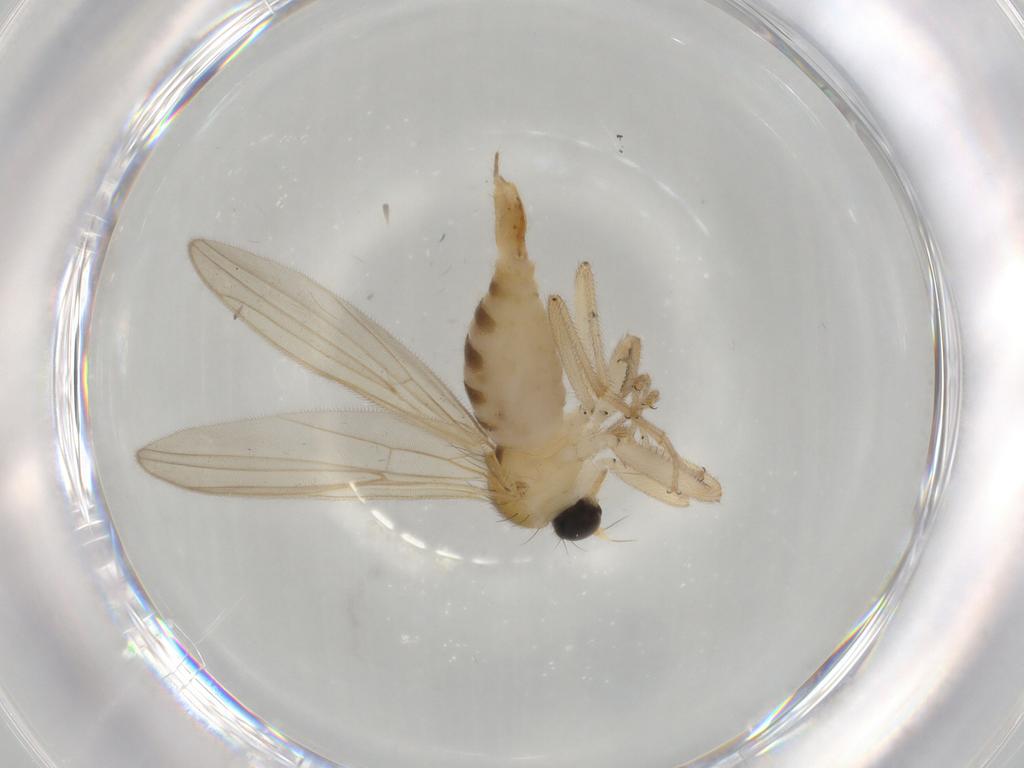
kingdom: Animalia
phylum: Arthropoda
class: Insecta
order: Diptera
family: Hybotidae
